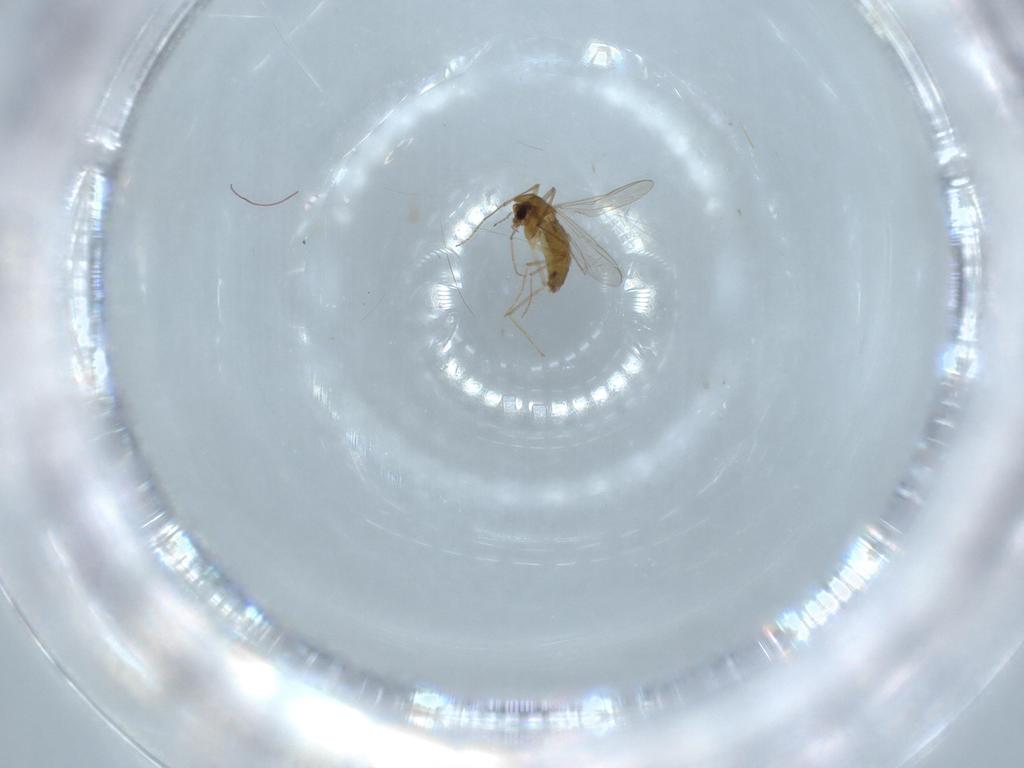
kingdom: Animalia
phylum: Arthropoda
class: Insecta
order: Diptera
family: Chironomidae
